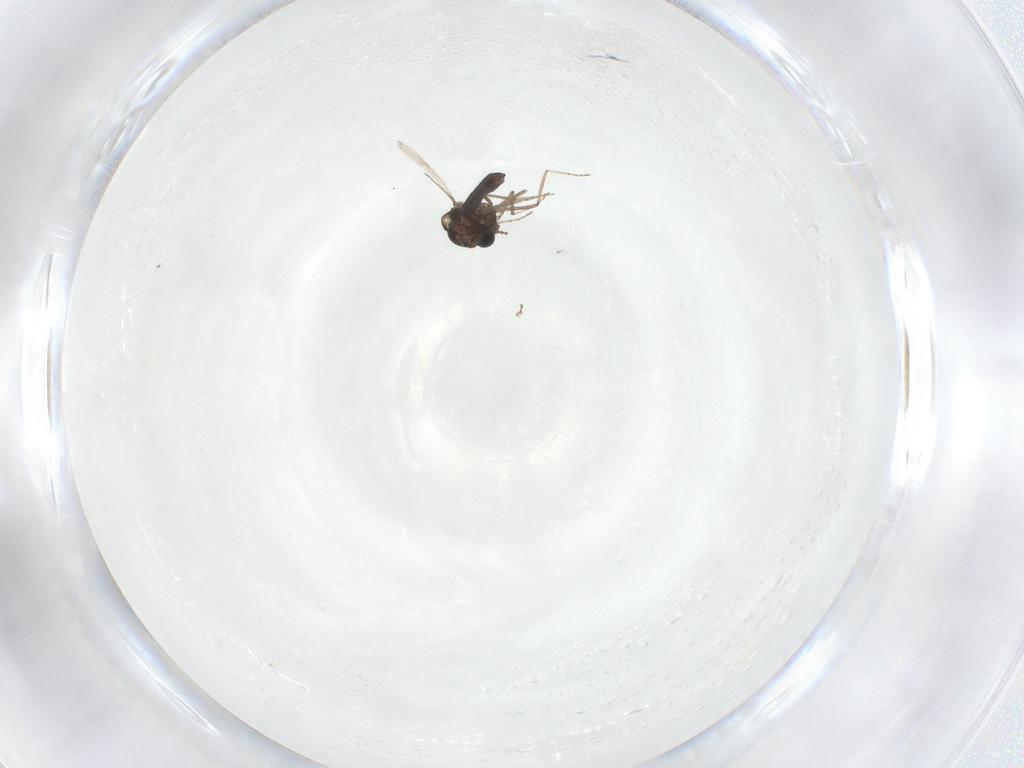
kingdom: Animalia
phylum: Arthropoda
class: Insecta
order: Diptera
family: Ceratopogonidae
